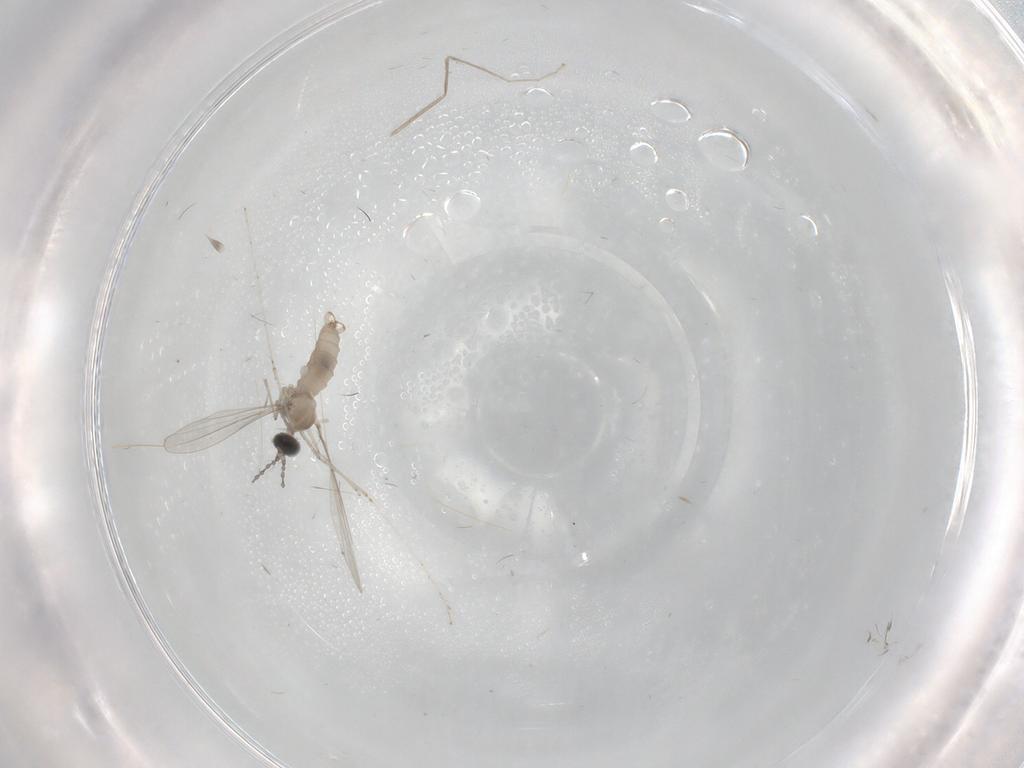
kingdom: Animalia
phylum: Arthropoda
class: Insecta
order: Diptera
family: Cecidomyiidae
